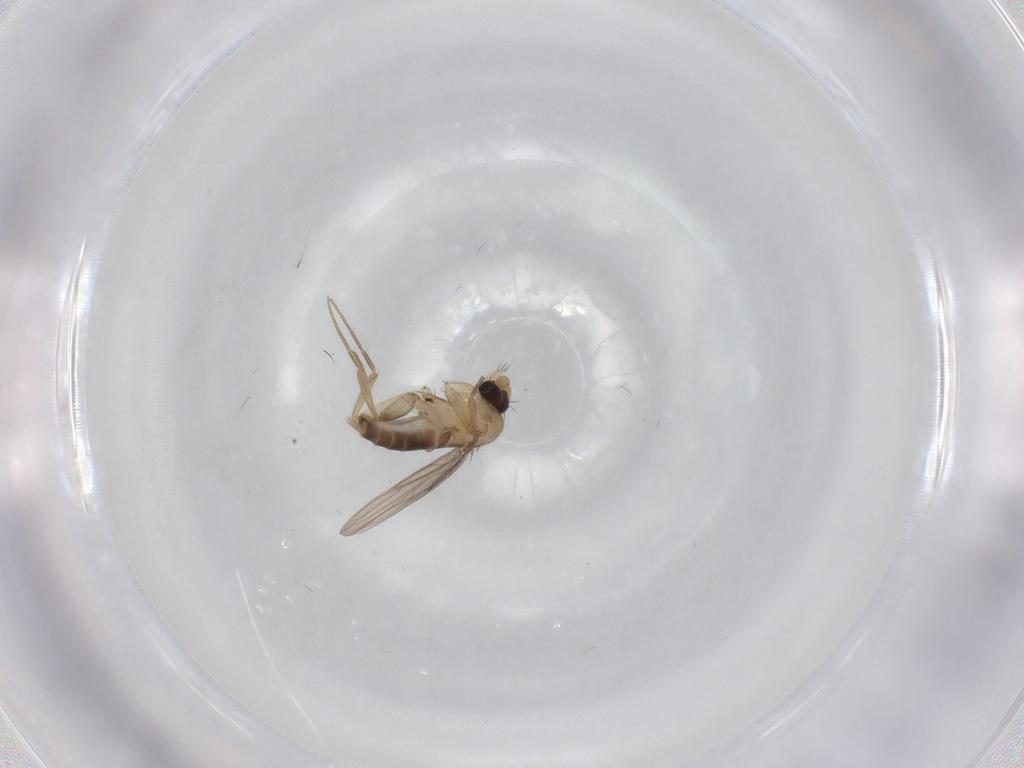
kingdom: Animalia
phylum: Arthropoda
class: Insecta
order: Diptera
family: Phoridae
